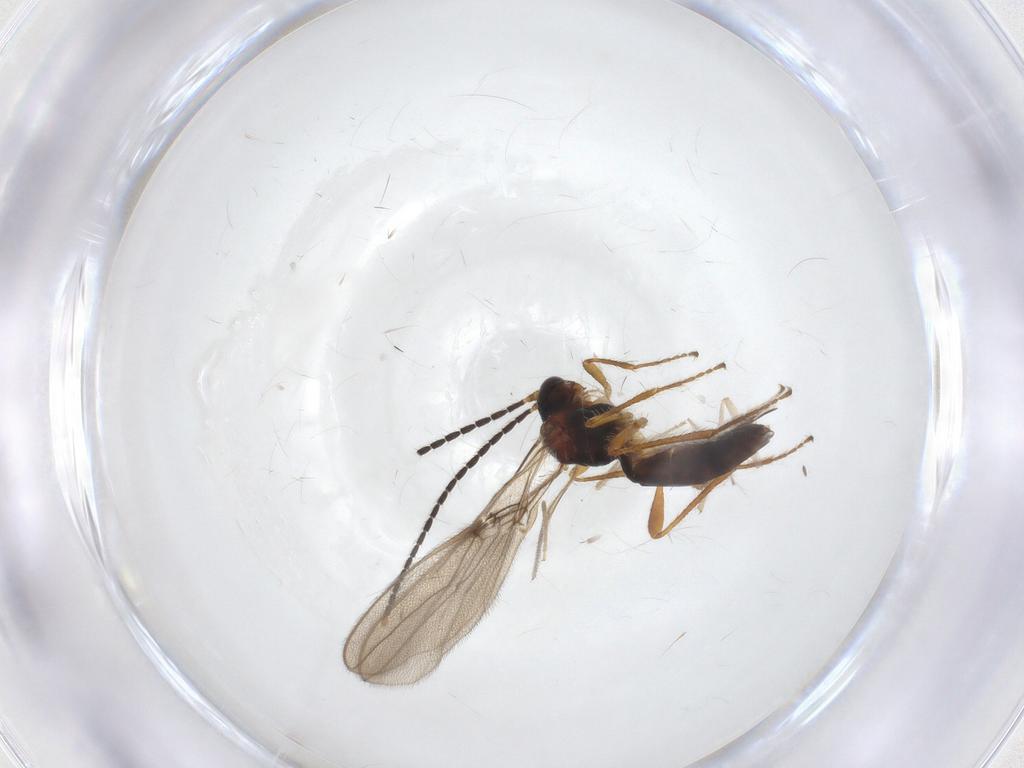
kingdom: Animalia
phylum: Arthropoda
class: Insecta
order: Hymenoptera
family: Braconidae
